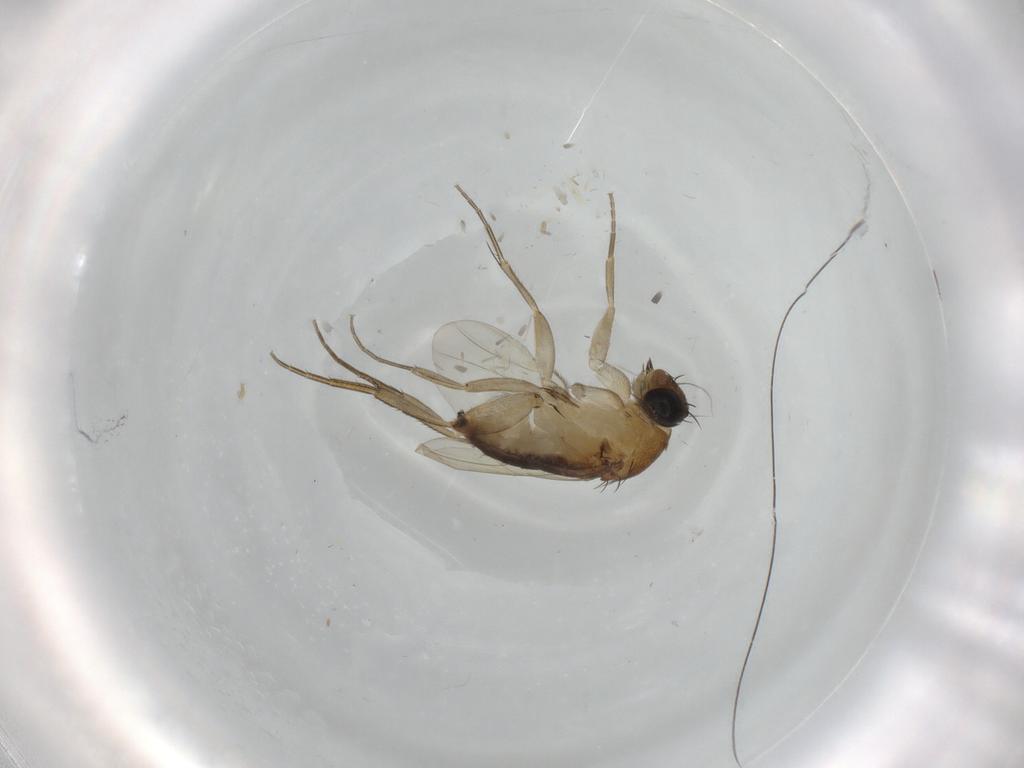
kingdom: Animalia
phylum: Arthropoda
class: Insecta
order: Diptera
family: Phoridae
